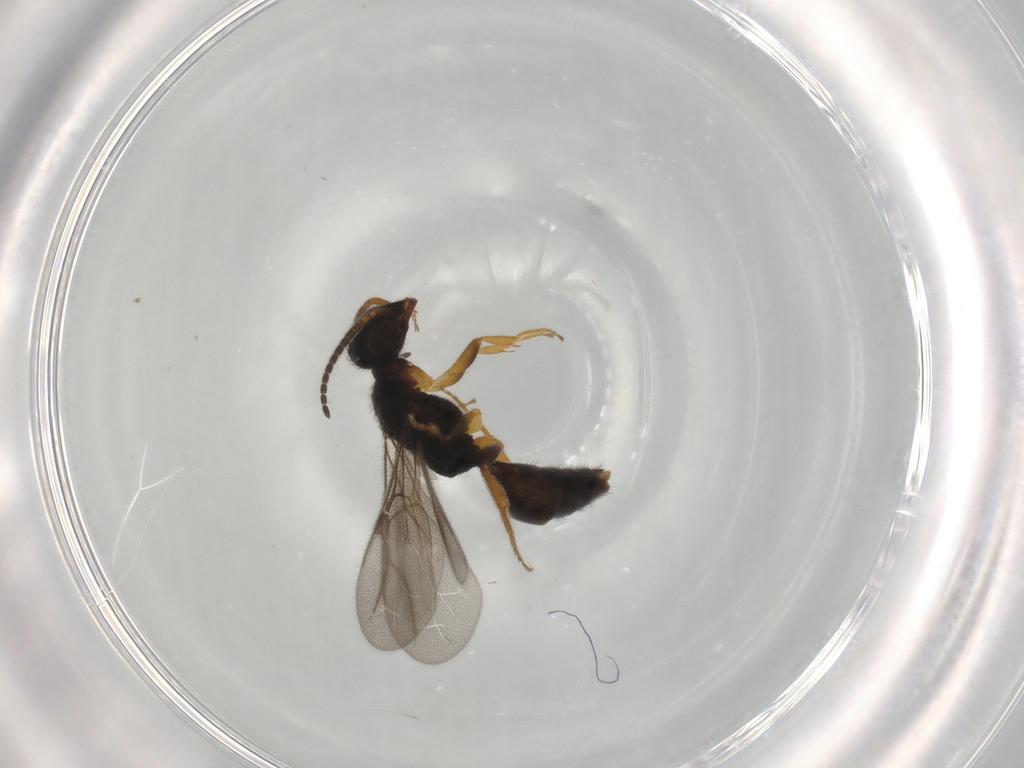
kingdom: Animalia
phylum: Arthropoda
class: Insecta
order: Hymenoptera
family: Bethylidae
